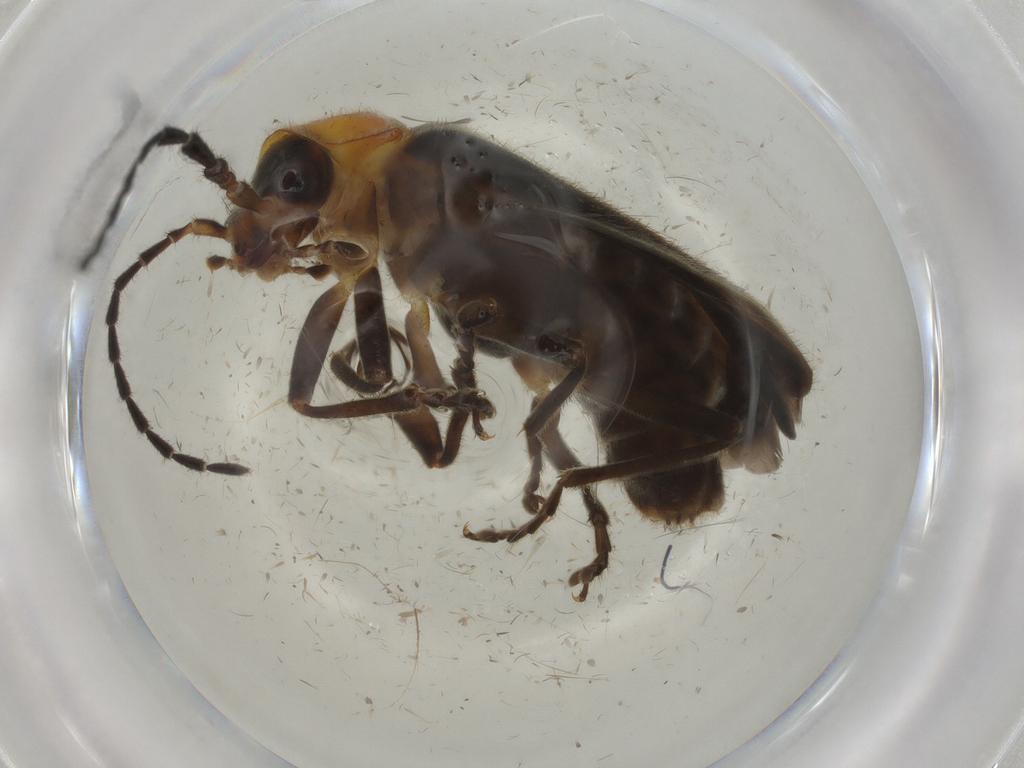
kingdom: Animalia
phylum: Arthropoda
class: Insecta
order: Coleoptera
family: Cantharidae
